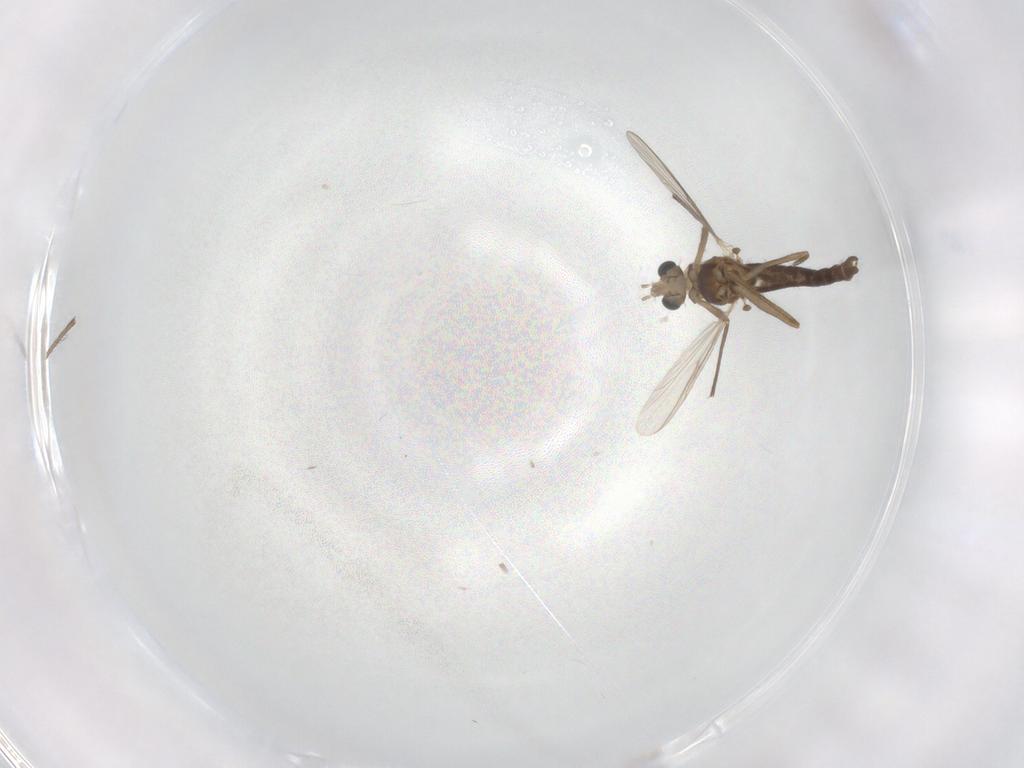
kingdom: Animalia
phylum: Arthropoda
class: Insecta
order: Diptera
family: Chironomidae
